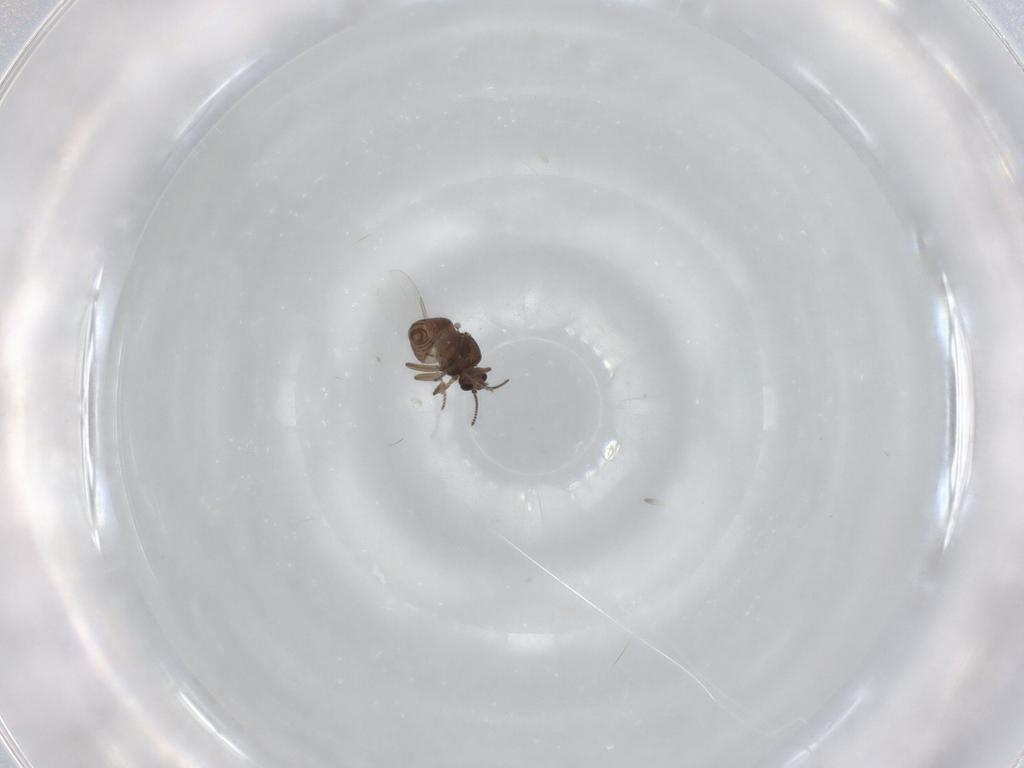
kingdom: Animalia
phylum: Arthropoda
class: Insecta
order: Diptera
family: Ceratopogonidae
